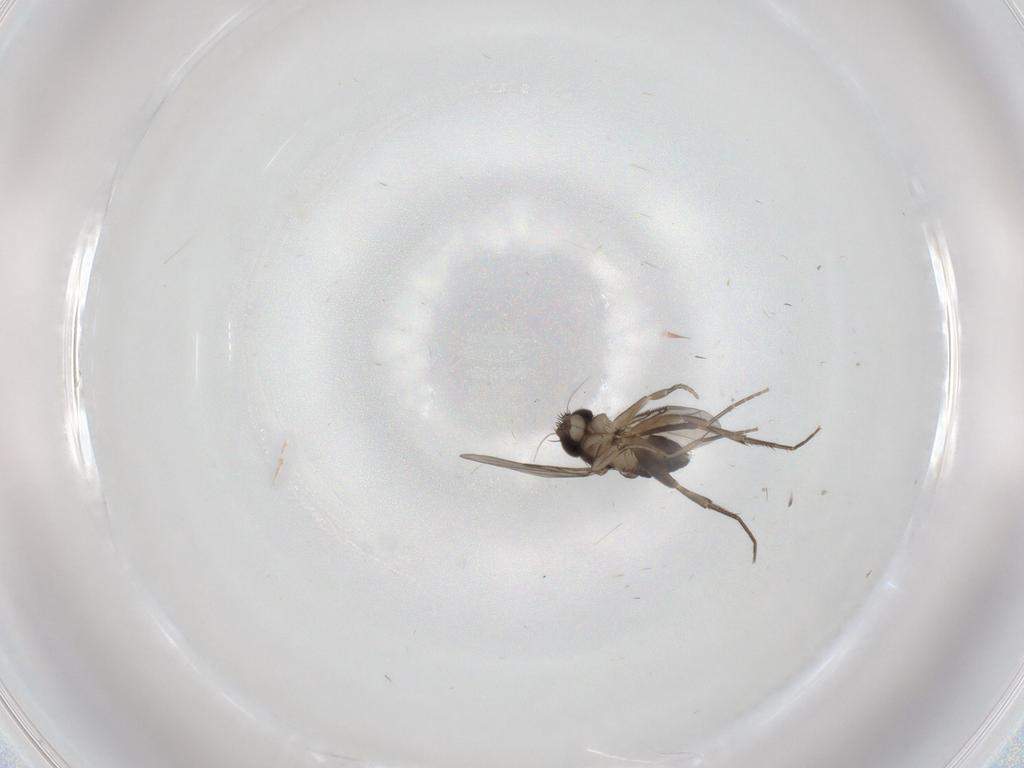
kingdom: Animalia
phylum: Arthropoda
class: Insecta
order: Diptera
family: Phoridae
